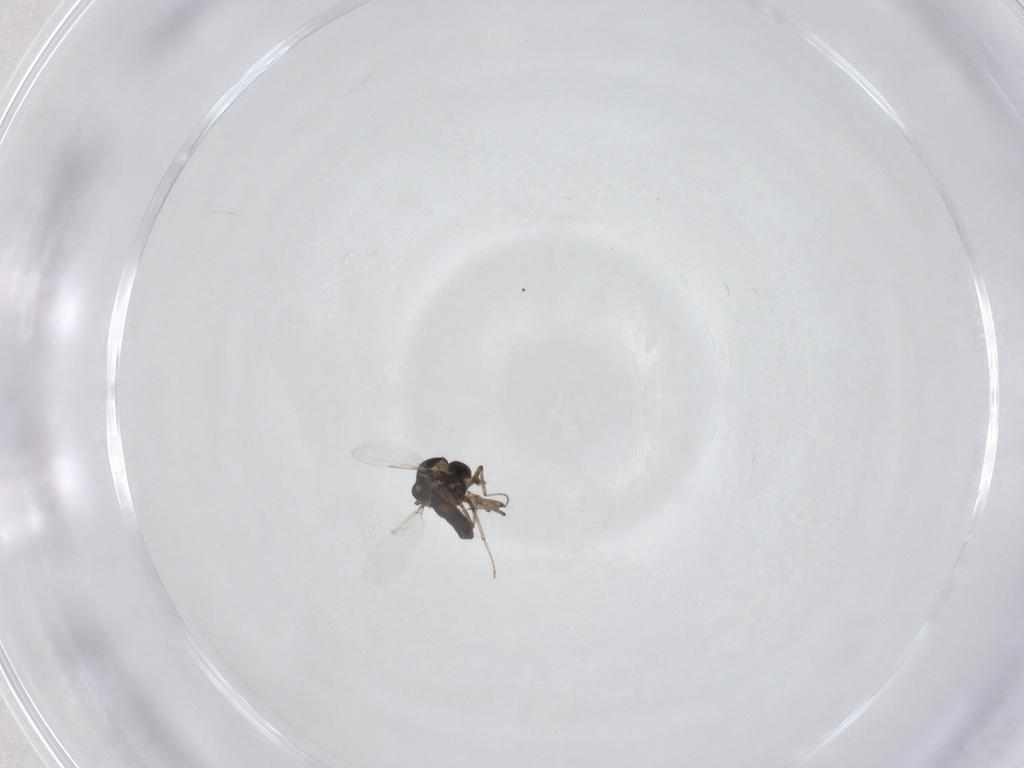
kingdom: Animalia
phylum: Arthropoda
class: Insecta
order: Diptera
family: Ceratopogonidae
